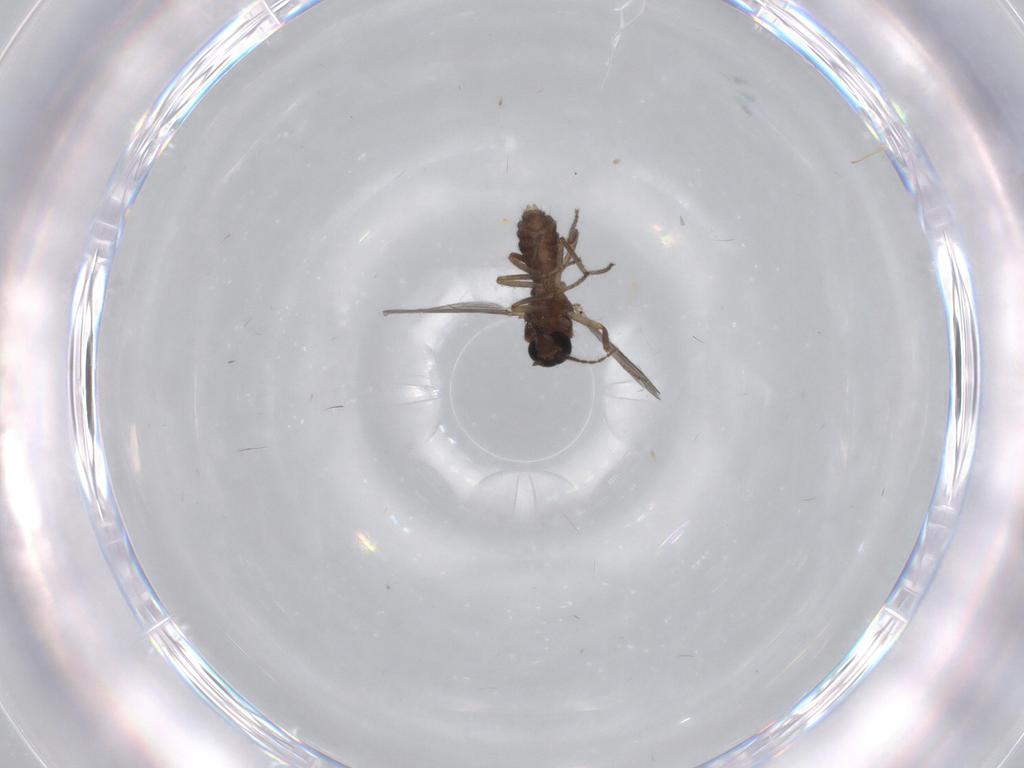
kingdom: Animalia
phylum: Arthropoda
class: Insecta
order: Diptera
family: Ceratopogonidae
